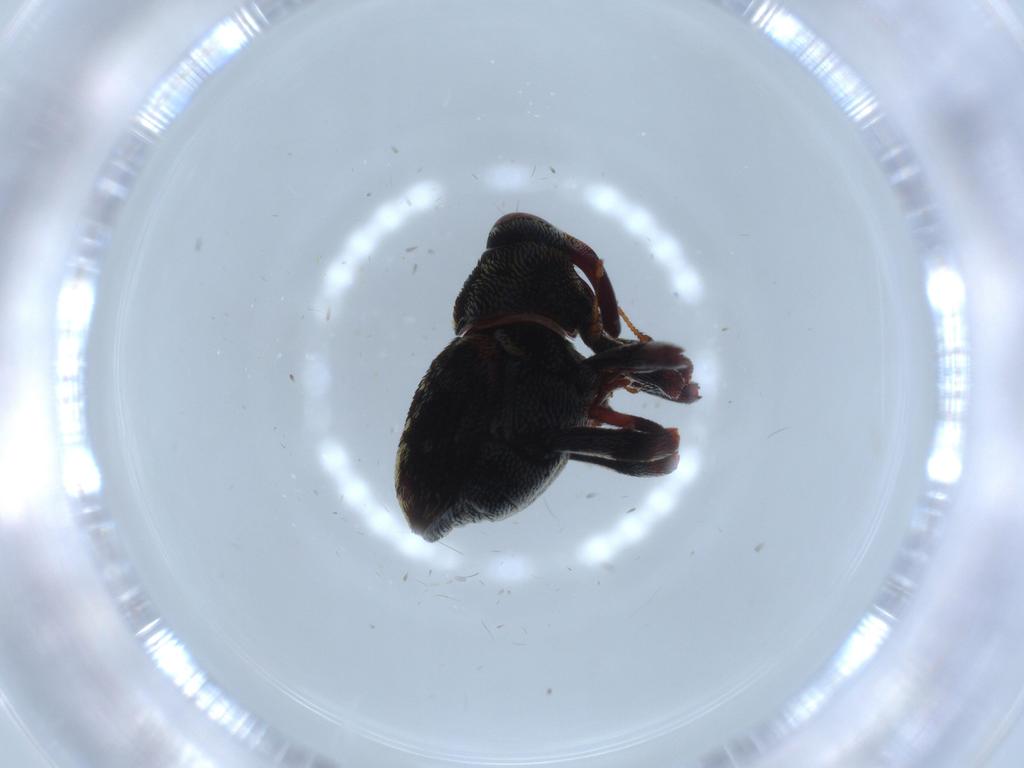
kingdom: Animalia
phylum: Arthropoda
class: Insecta
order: Coleoptera
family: Curculionidae
